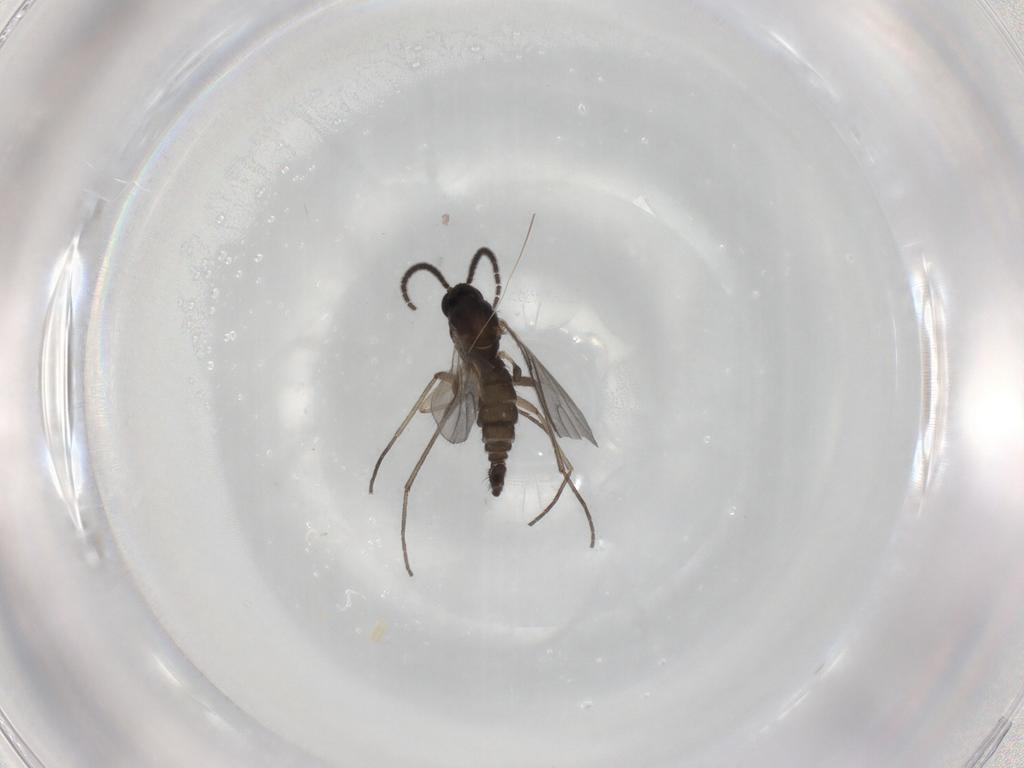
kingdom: Animalia
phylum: Arthropoda
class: Insecta
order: Diptera
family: Sciaridae
